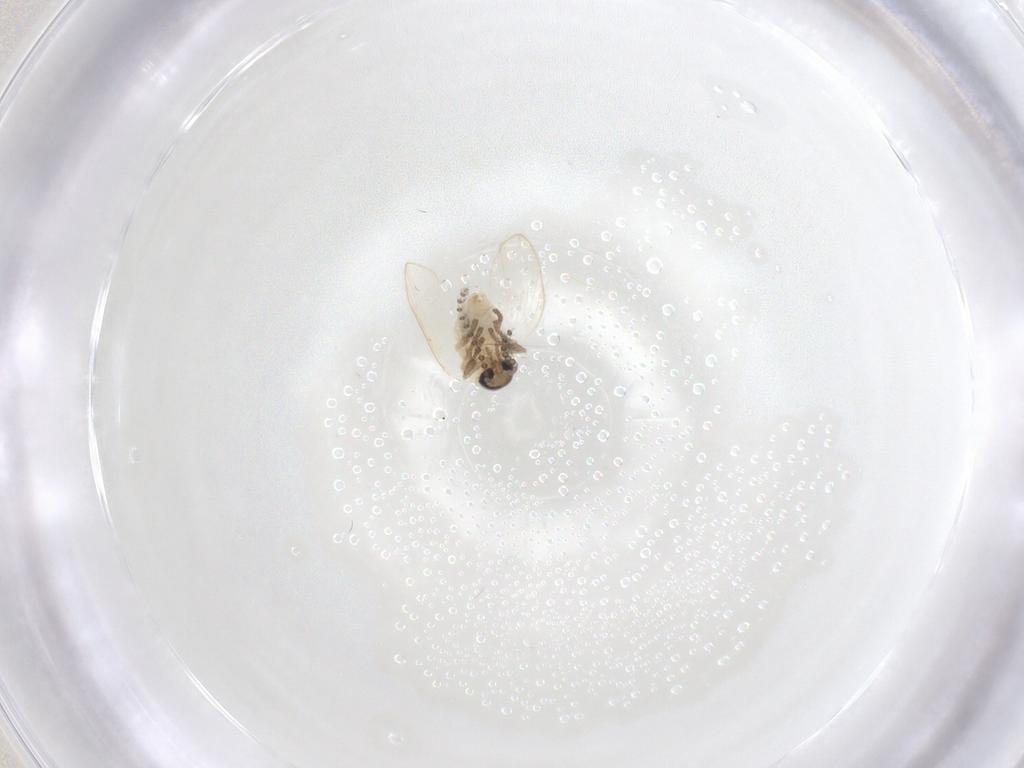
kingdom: Animalia
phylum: Arthropoda
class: Insecta
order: Diptera
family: Psychodidae
